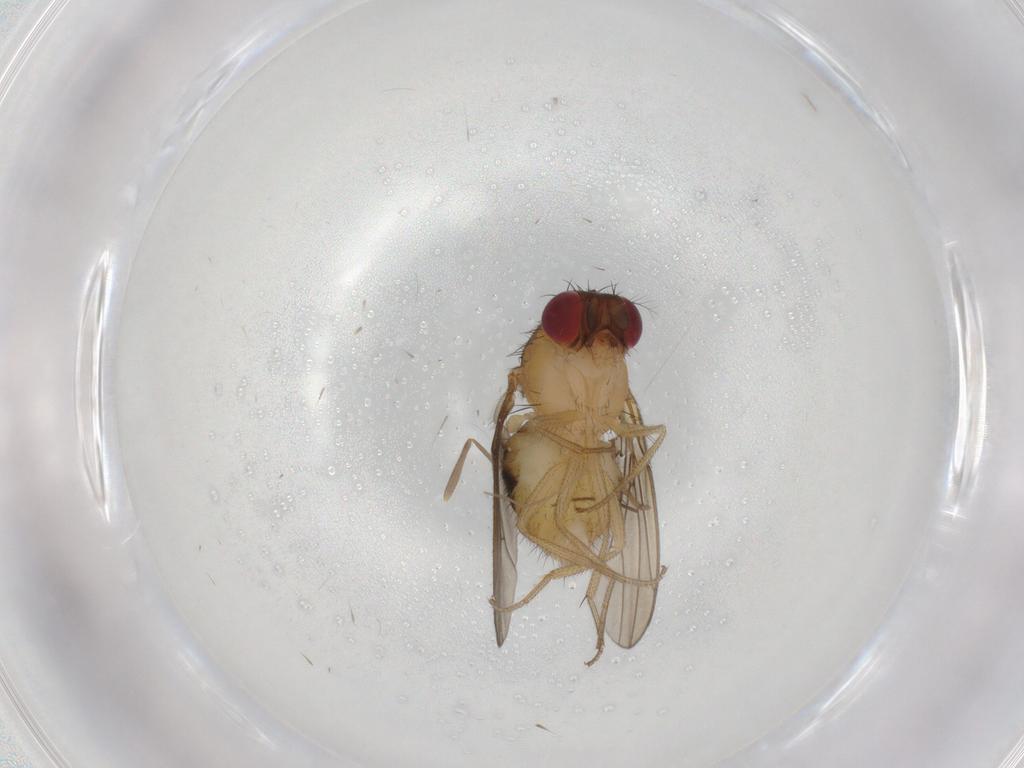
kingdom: Animalia
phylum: Arthropoda
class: Insecta
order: Diptera
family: Drosophilidae
